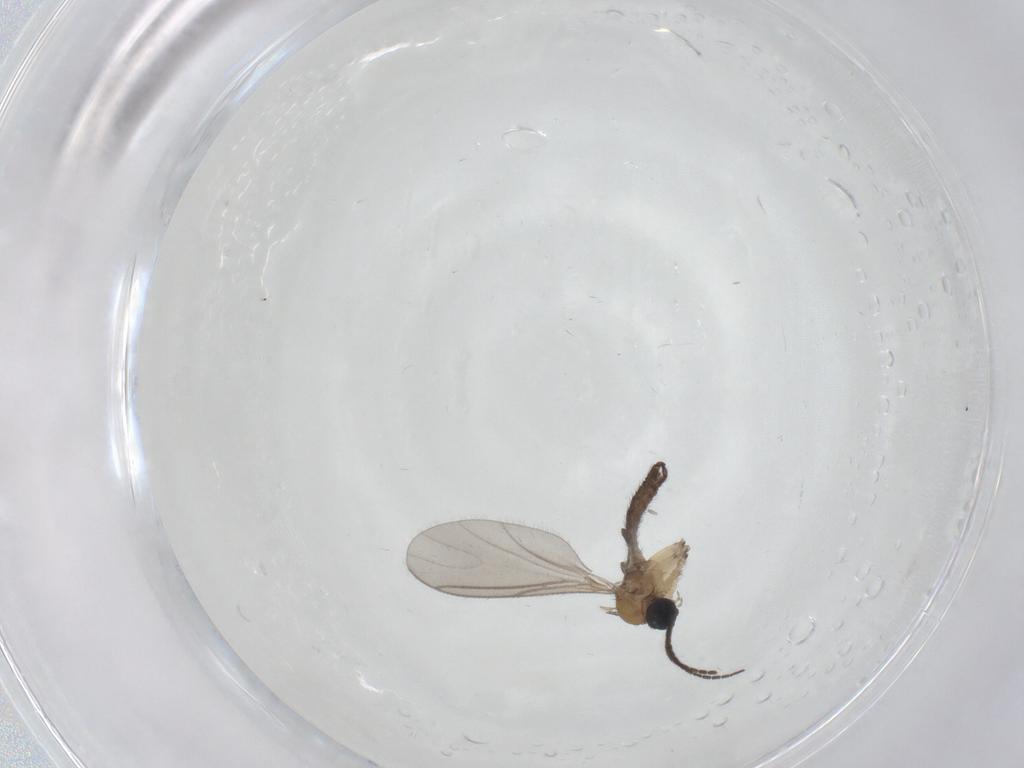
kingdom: Animalia
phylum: Arthropoda
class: Insecta
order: Diptera
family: Sciaridae
